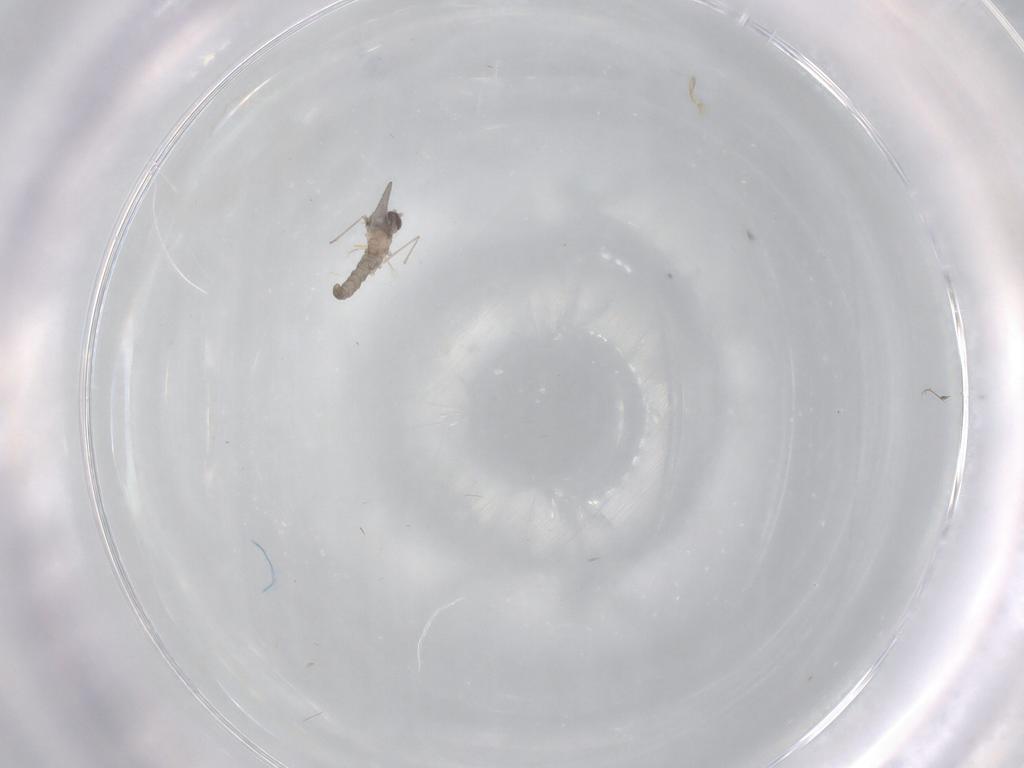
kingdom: Animalia
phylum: Arthropoda
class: Insecta
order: Diptera
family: Cecidomyiidae
